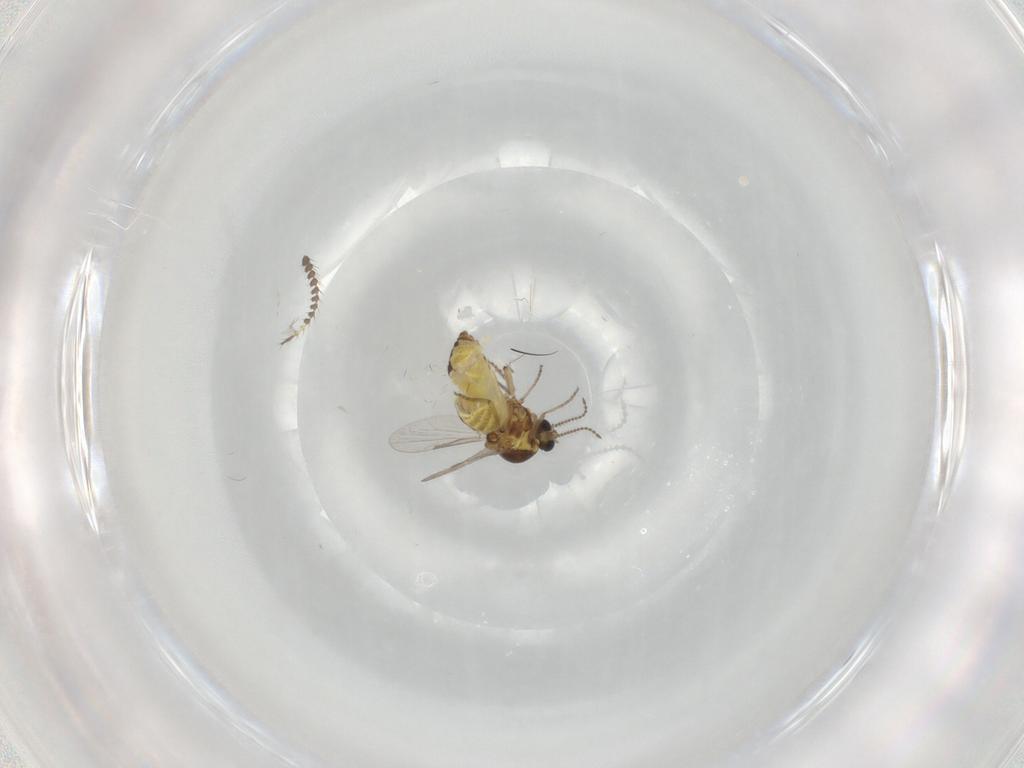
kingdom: Animalia
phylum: Arthropoda
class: Insecta
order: Diptera
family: Ceratopogonidae
